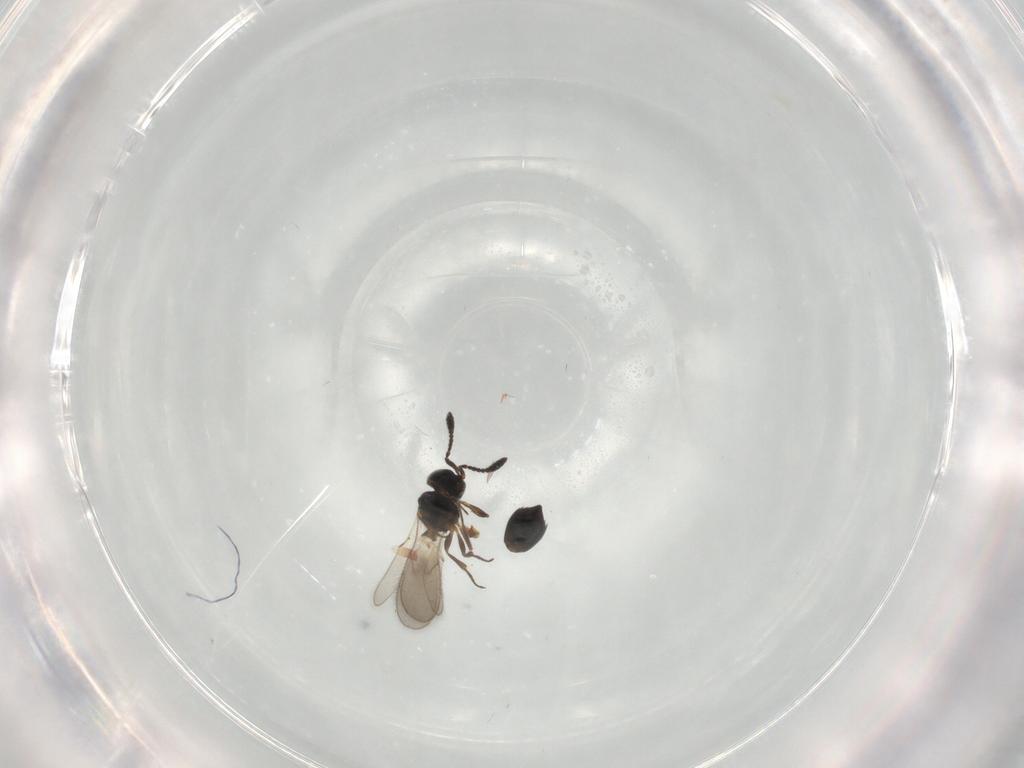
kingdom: Animalia
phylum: Arthropoda
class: Insecta
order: Hymenoptera
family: Scelionidae
